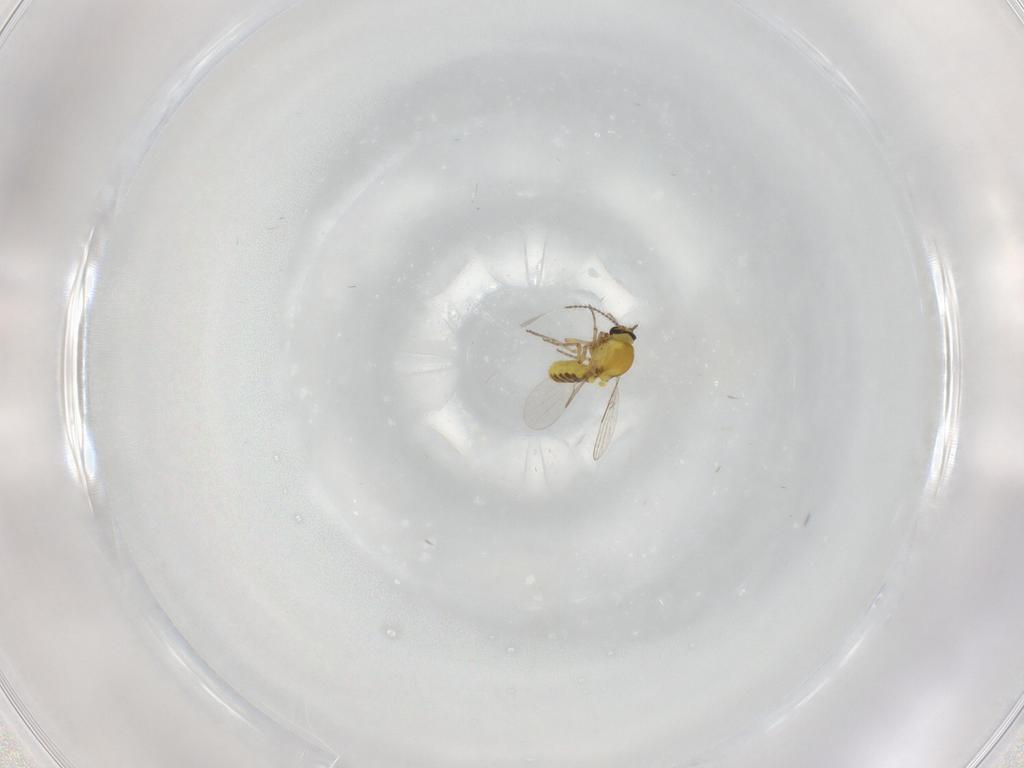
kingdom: Animalia
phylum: Arthropoda
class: Insecta
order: Diptera
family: Ceratopogonidae
